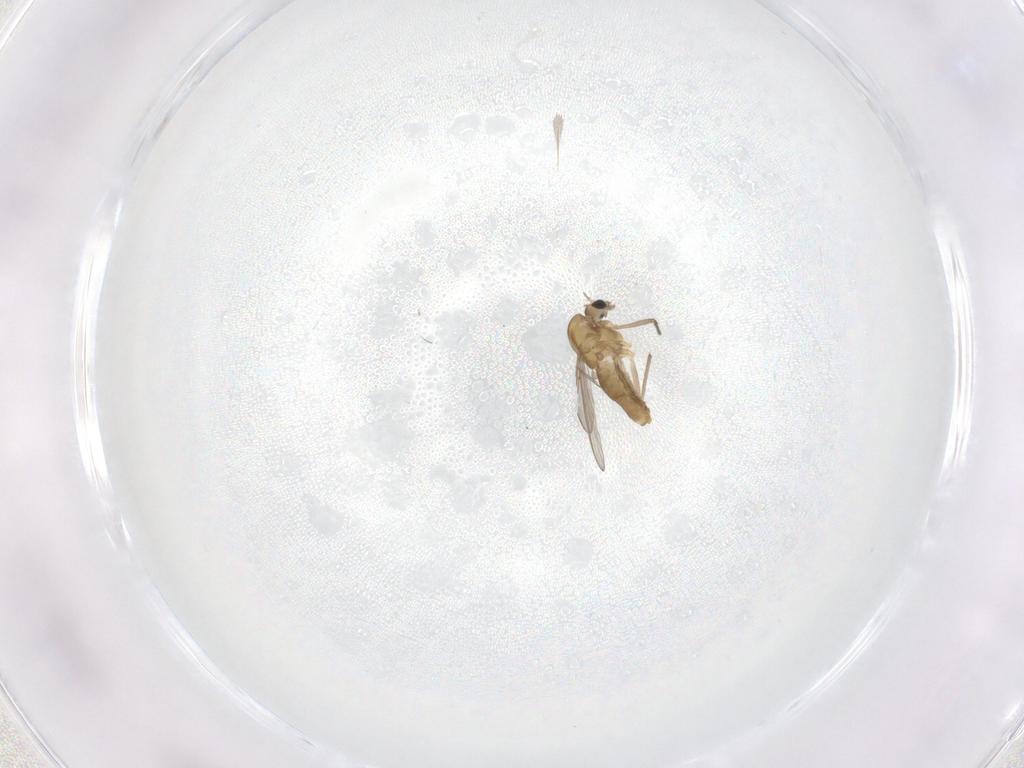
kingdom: Animalia
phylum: Arthropoda
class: Insecta
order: Diptera
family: Chironomidae
